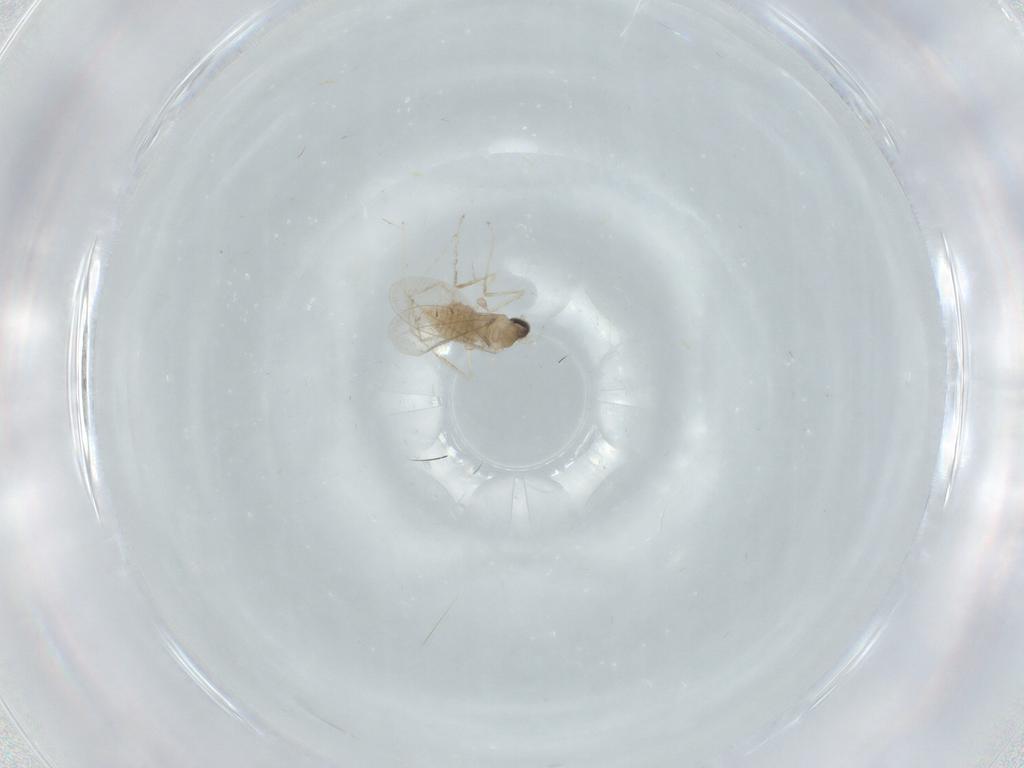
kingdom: Animalia
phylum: Arthropoda
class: Insecta
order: Diptera
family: Cecidomyiidae
